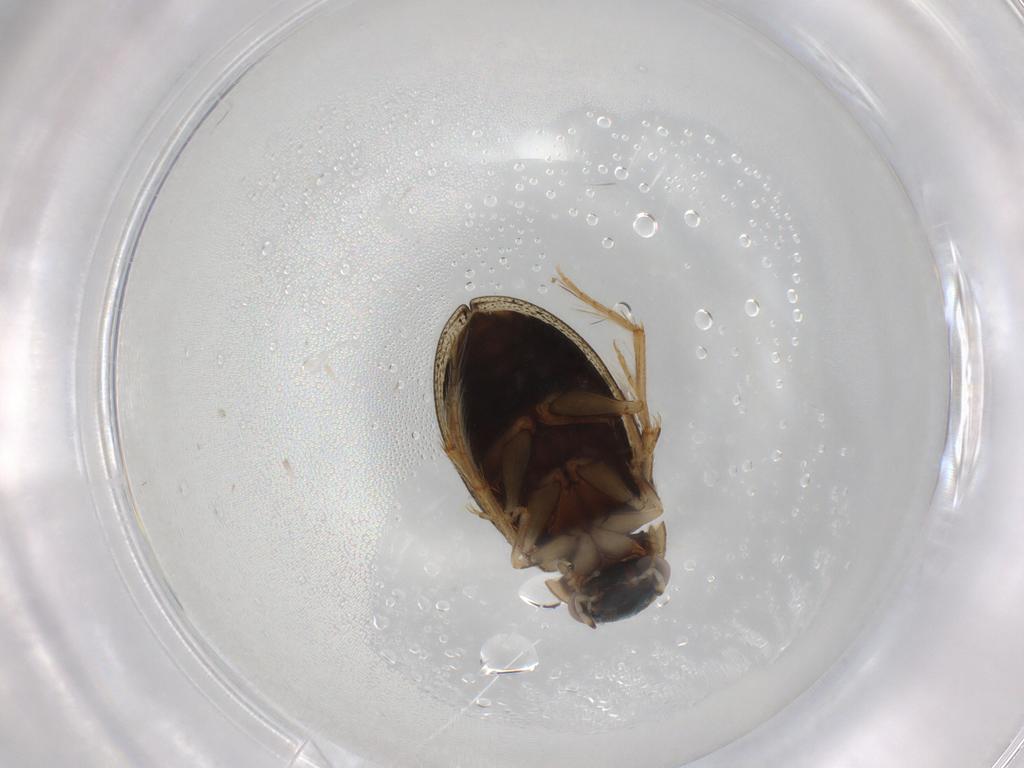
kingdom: Animalia
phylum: Arthropoda
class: Insecta
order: Coleoptera
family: Hydrophilidae
